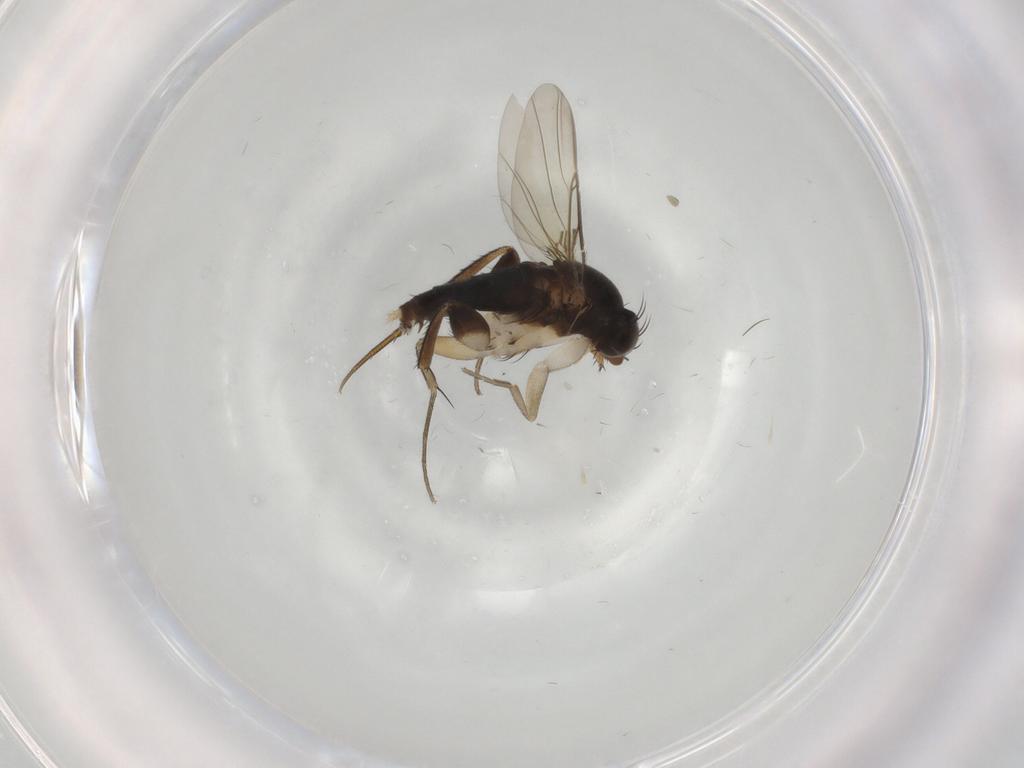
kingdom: Animalia
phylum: Arthropoda
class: Insecta
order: Diptera
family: Phoridae
